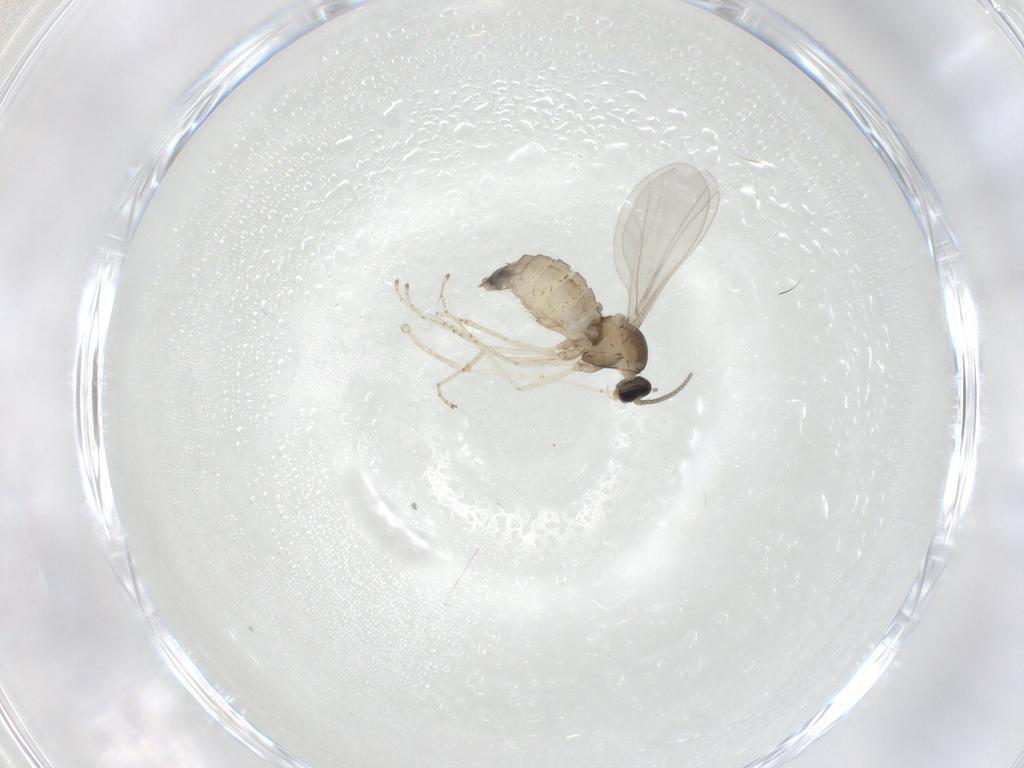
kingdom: Animalia
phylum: Arthropoda
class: Insecta
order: Diptera
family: Cecidomyiidae
